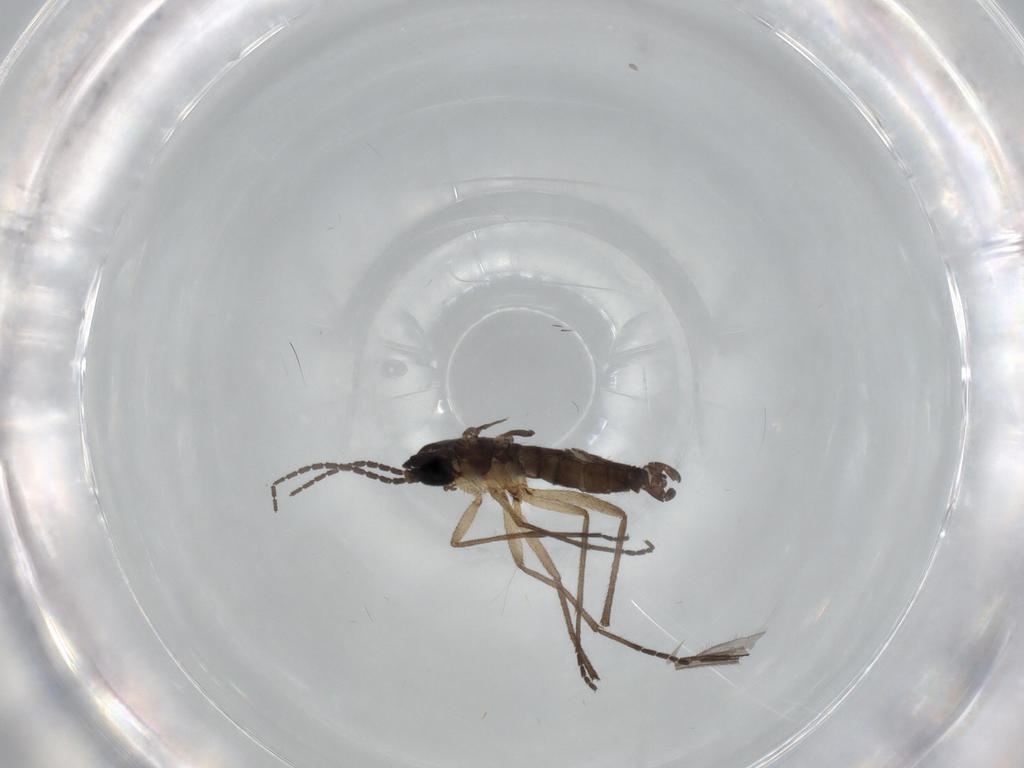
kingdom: Animalia
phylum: Arthropoda
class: Insecta
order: Diptera
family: Sciaridae
